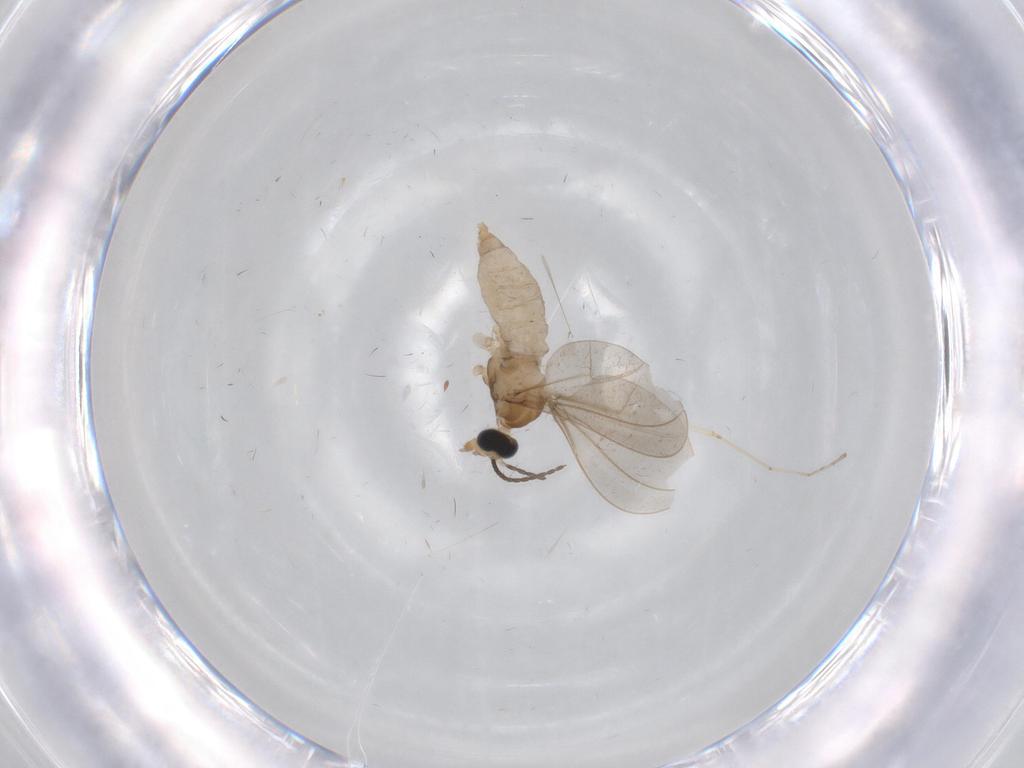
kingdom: Animalia
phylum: Arthropoda
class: Insecta
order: Diptera
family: Cecidomyiidae
